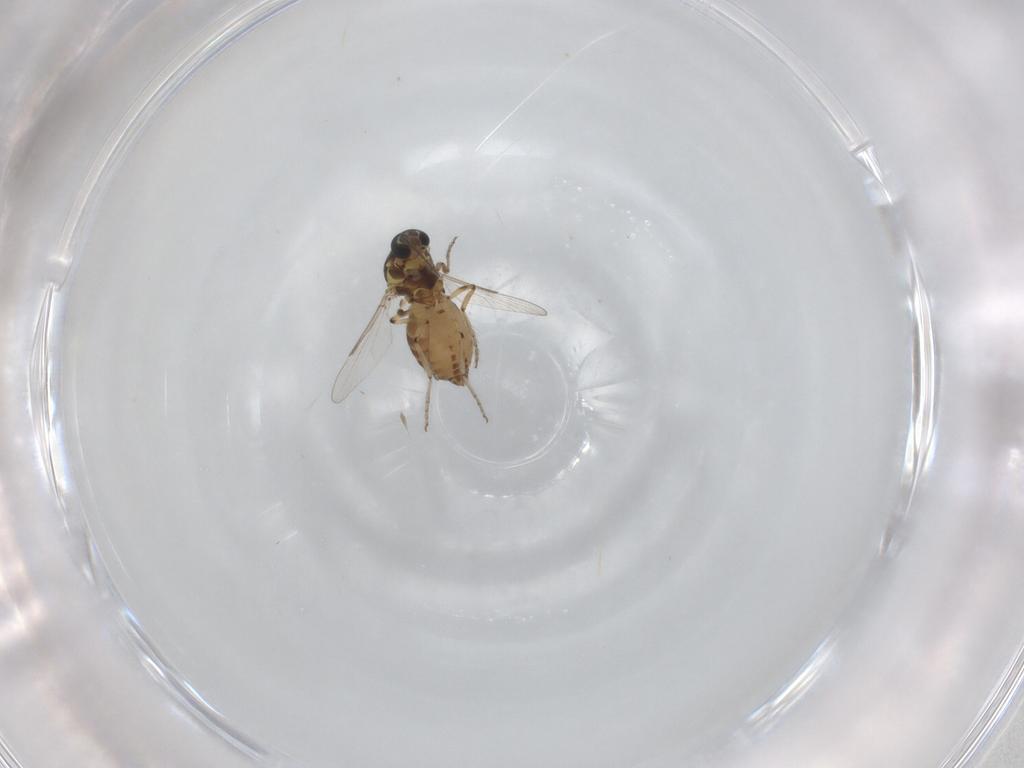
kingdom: Animalia
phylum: Arthropoda
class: Insecta
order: Diptera
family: Ceratopogonidae
